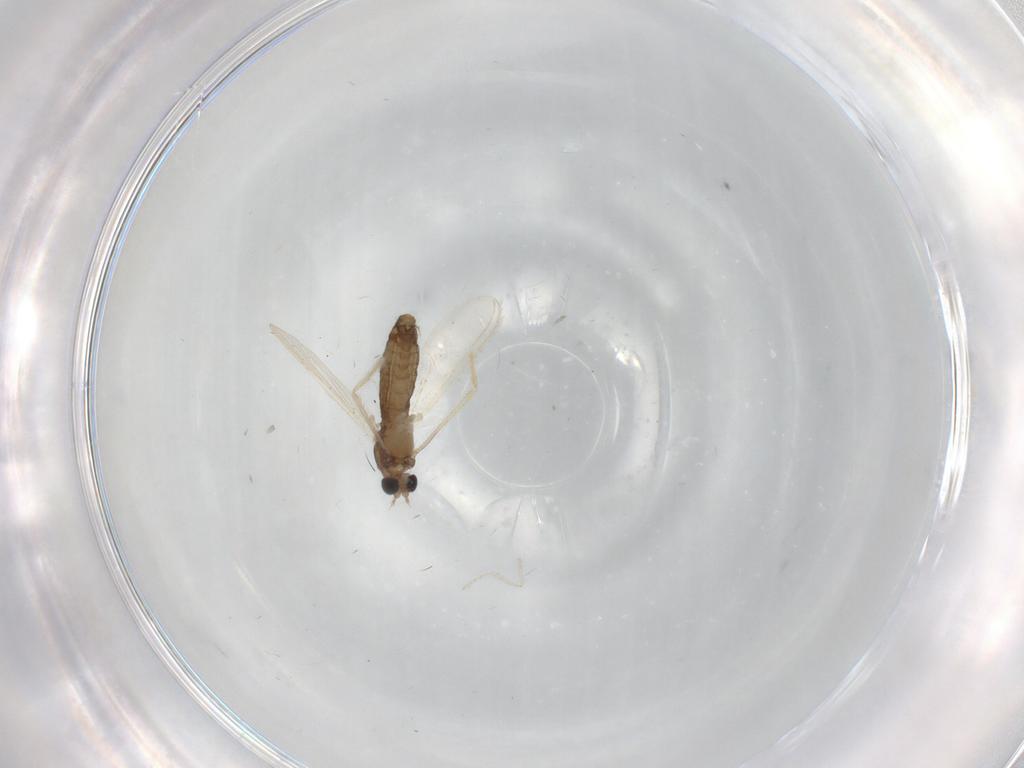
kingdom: Animalia
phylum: Arthropoda
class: Insecta
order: Diptera
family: Chironomidae
